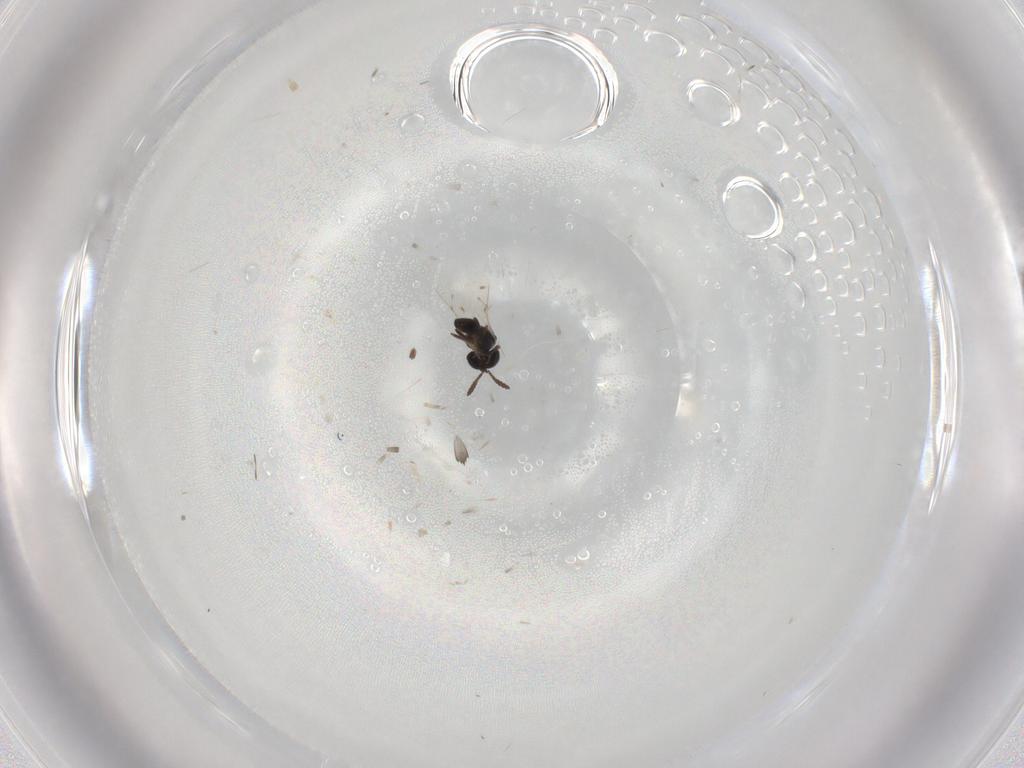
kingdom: Animalia
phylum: Arthropoda
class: Insecta
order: Hymenoptera
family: Scelionidae
